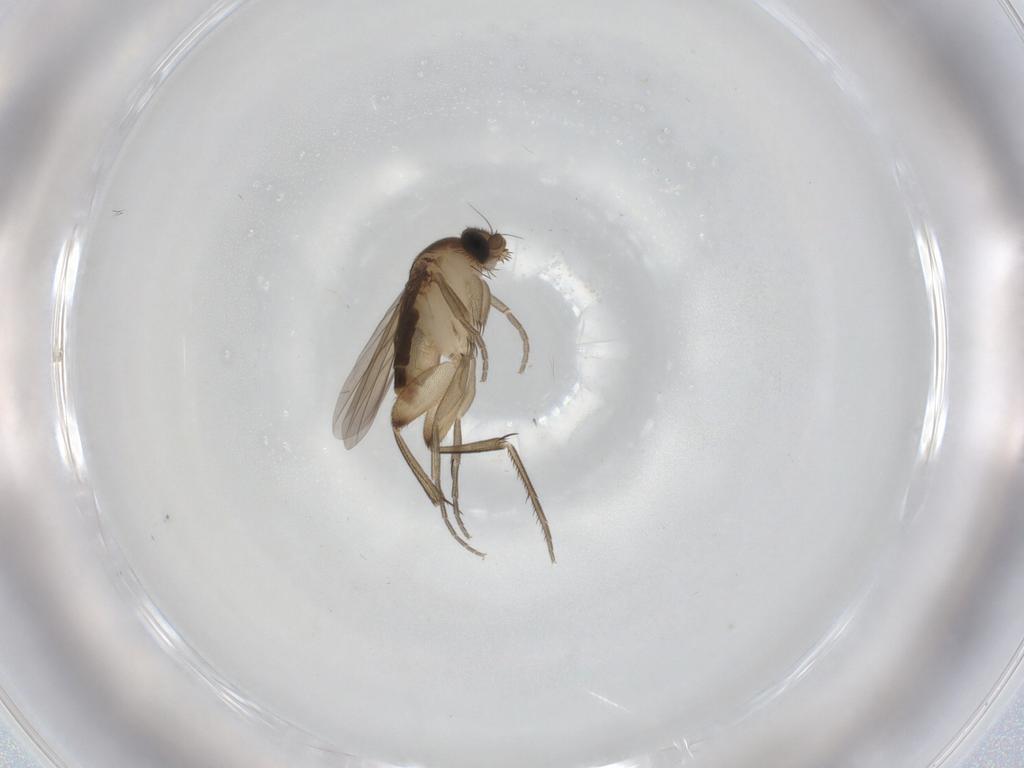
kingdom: Animalia
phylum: Arthropoda
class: Insecta
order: Diptera
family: Phoridae
